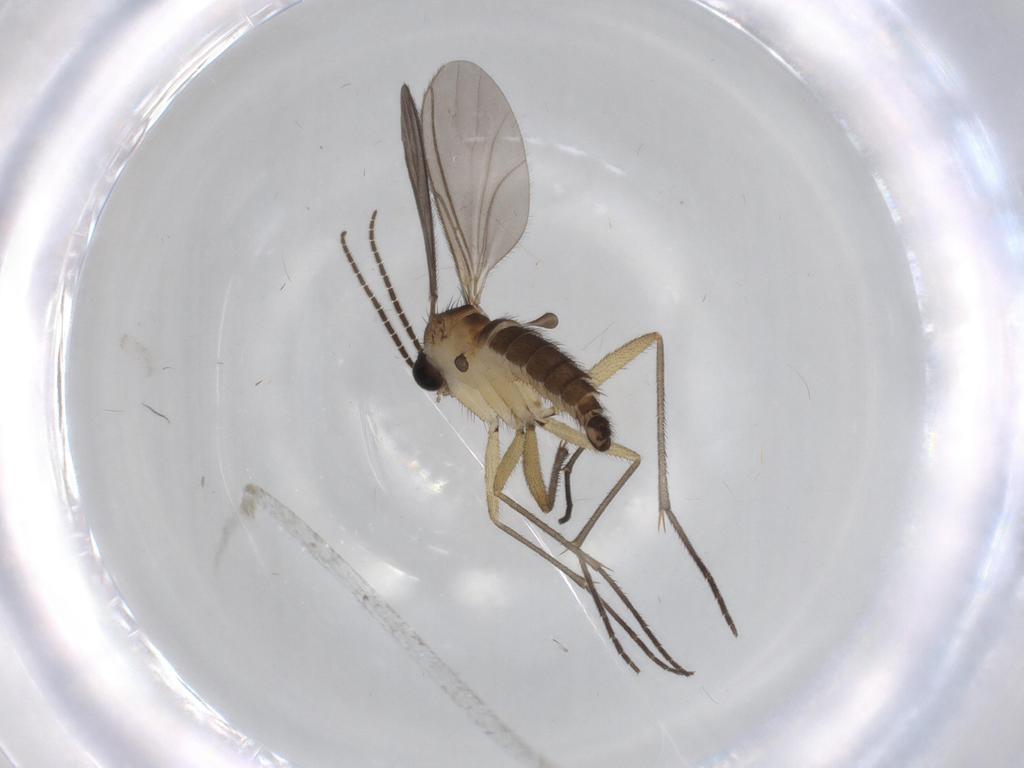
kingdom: Animalia
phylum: Arthropoda
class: Insecta
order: Diptera
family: Sciaridae
